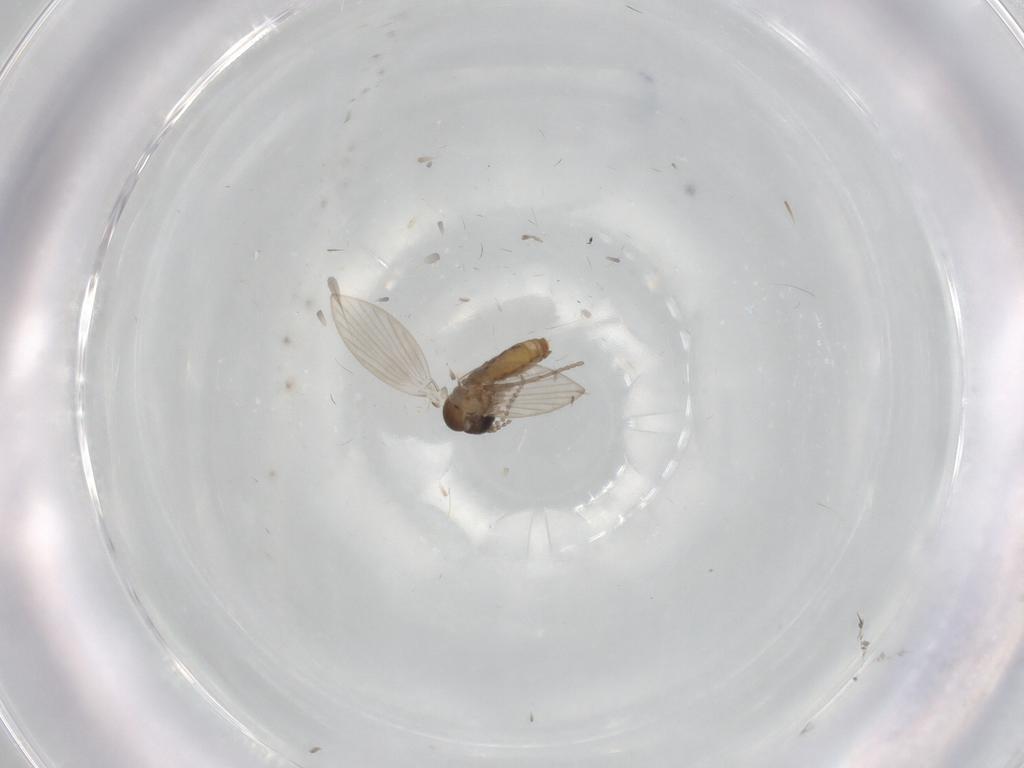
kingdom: Animalia
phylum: Arthropoda
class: Insecta
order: Diptera
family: Psychodidae
